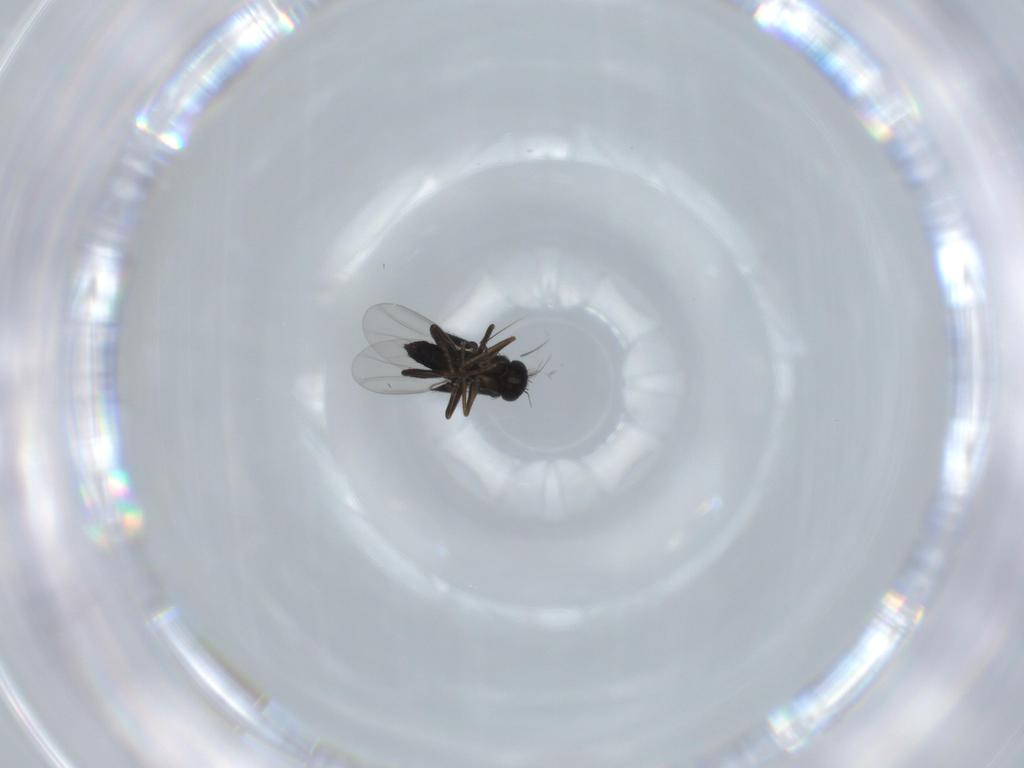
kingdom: Animalia
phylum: Arthropoda
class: Insecta
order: Diptera
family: Phoridae
